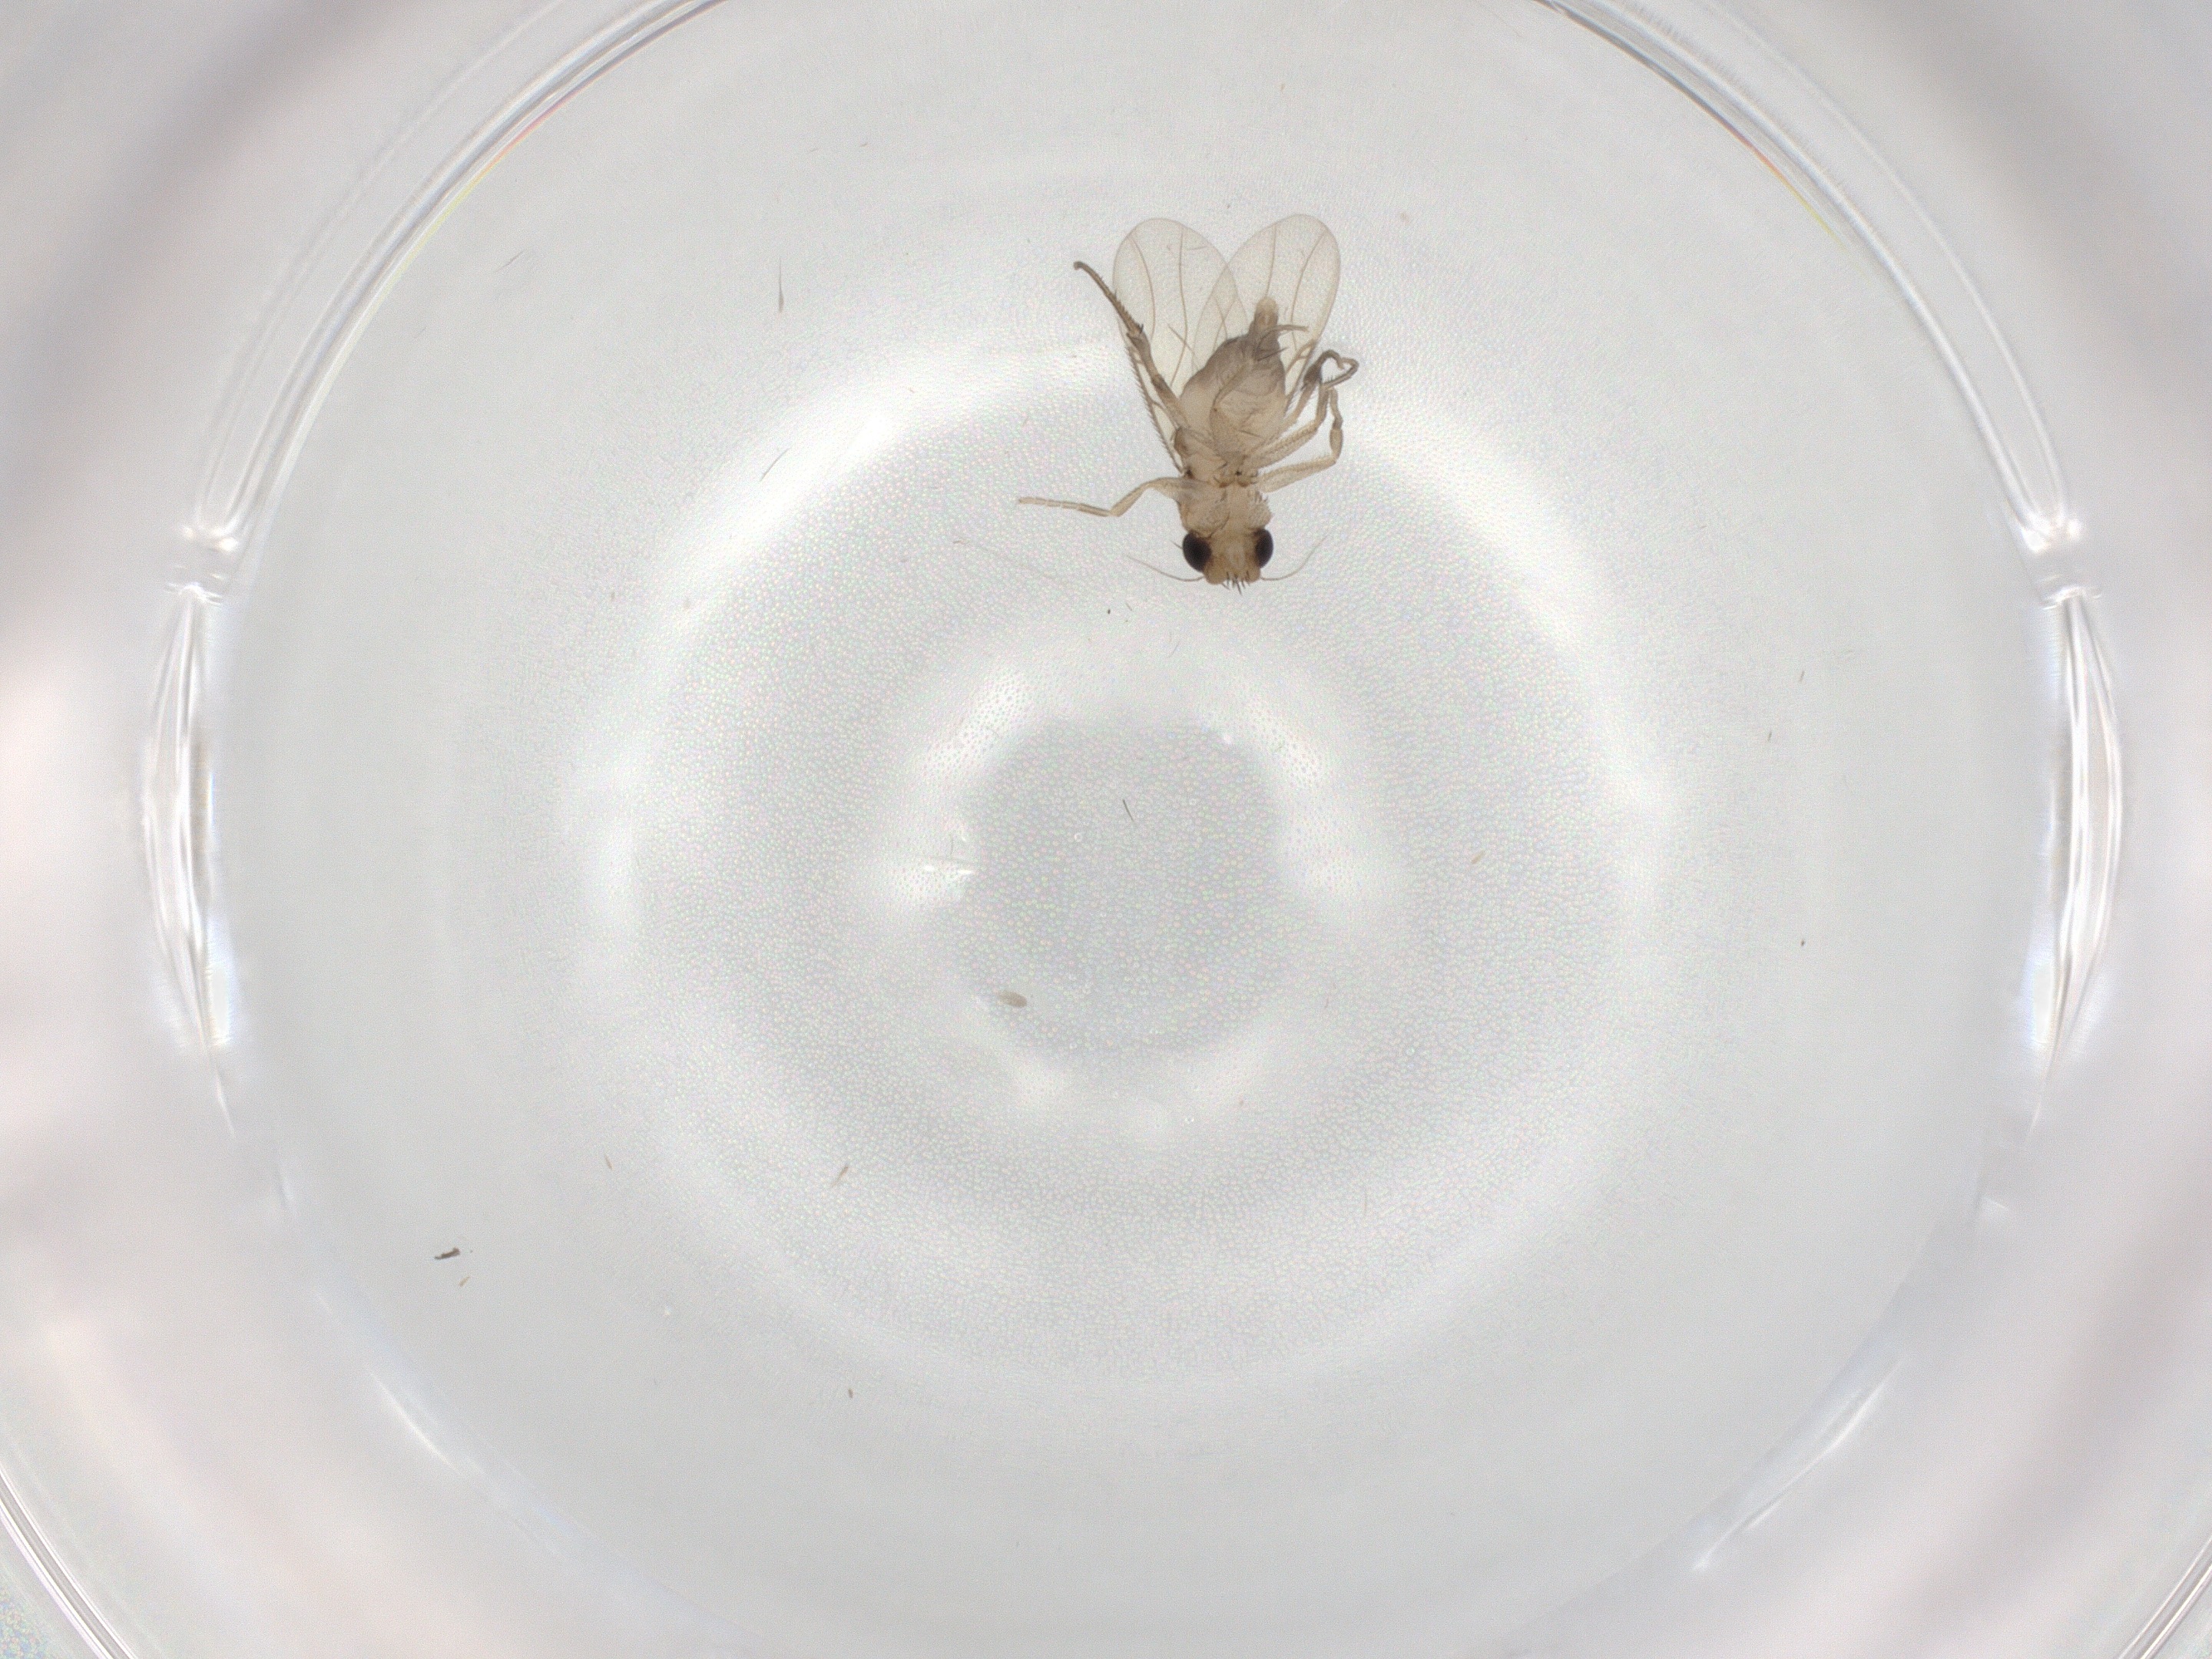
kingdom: Animalia
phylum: Arthropoda
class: Insecta
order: Diptera
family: Phoridae
